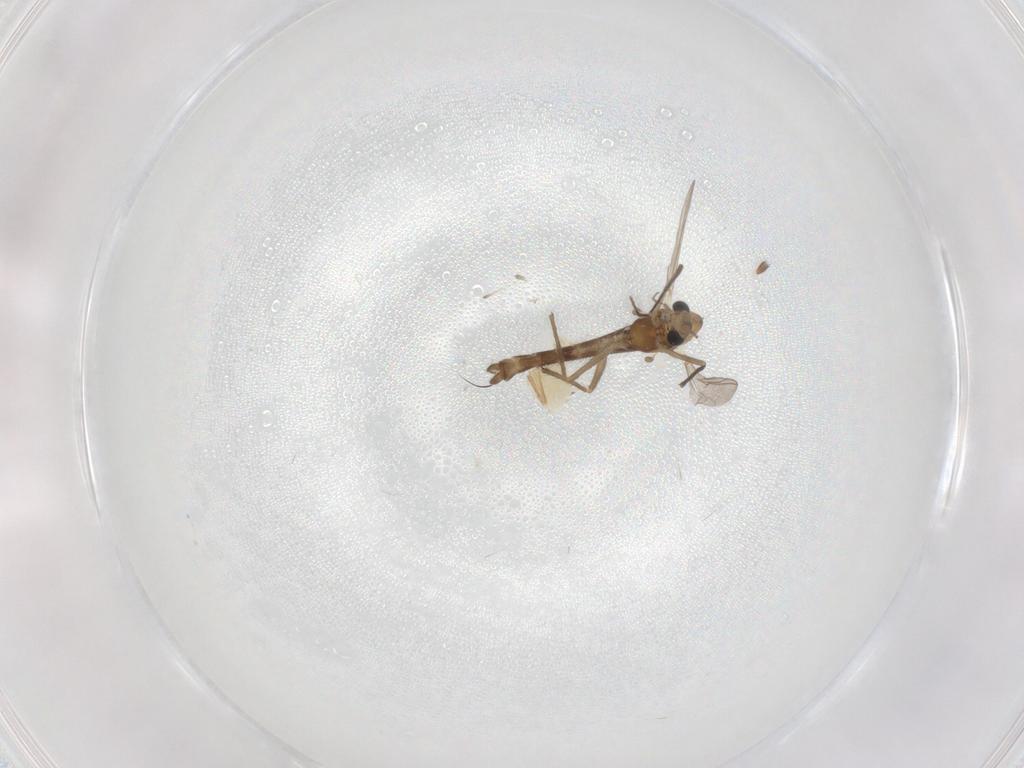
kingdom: Animalia
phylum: Arthropoda
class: Insecta
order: Diptera
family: Chironomidae
